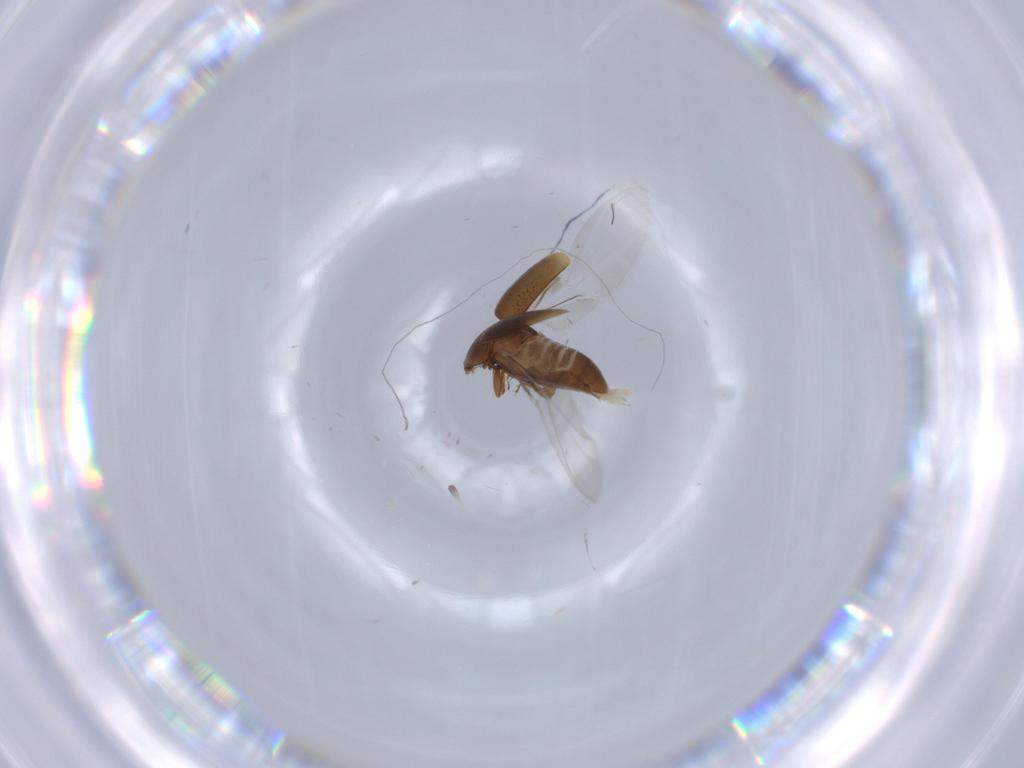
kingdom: Animalia
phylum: Arthropoda
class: Insecta
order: Coleoptera
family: Corylophidae
